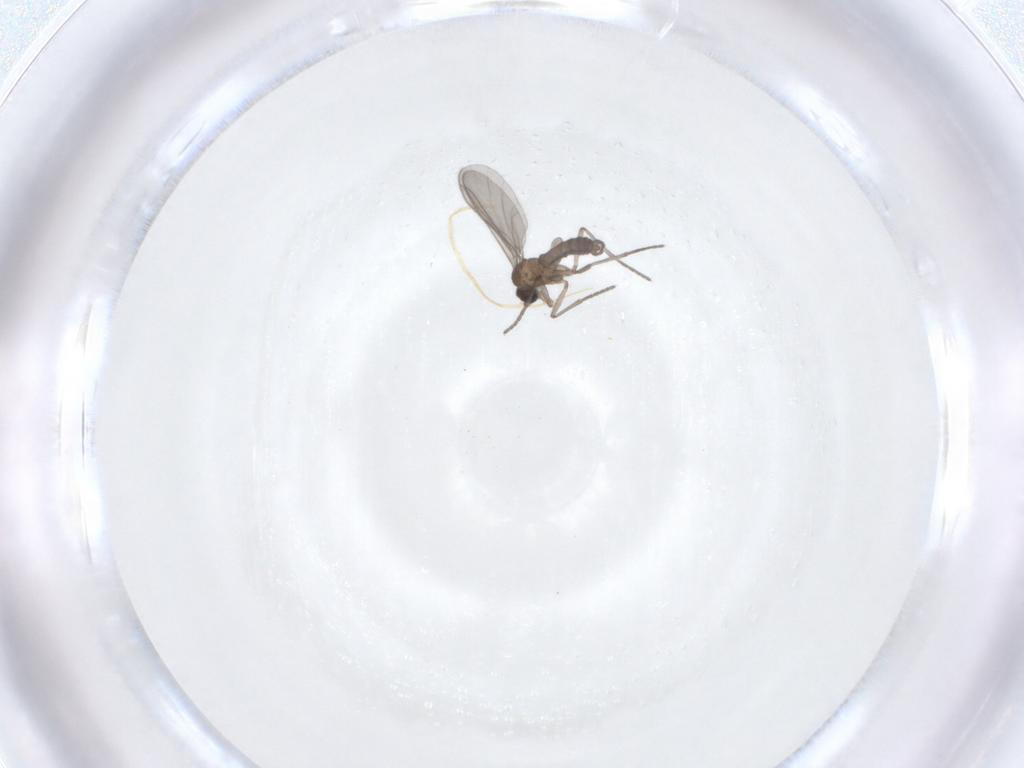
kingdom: Animalia
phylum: Arthropoda
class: Insecta
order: Diptera
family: Sciaridae
